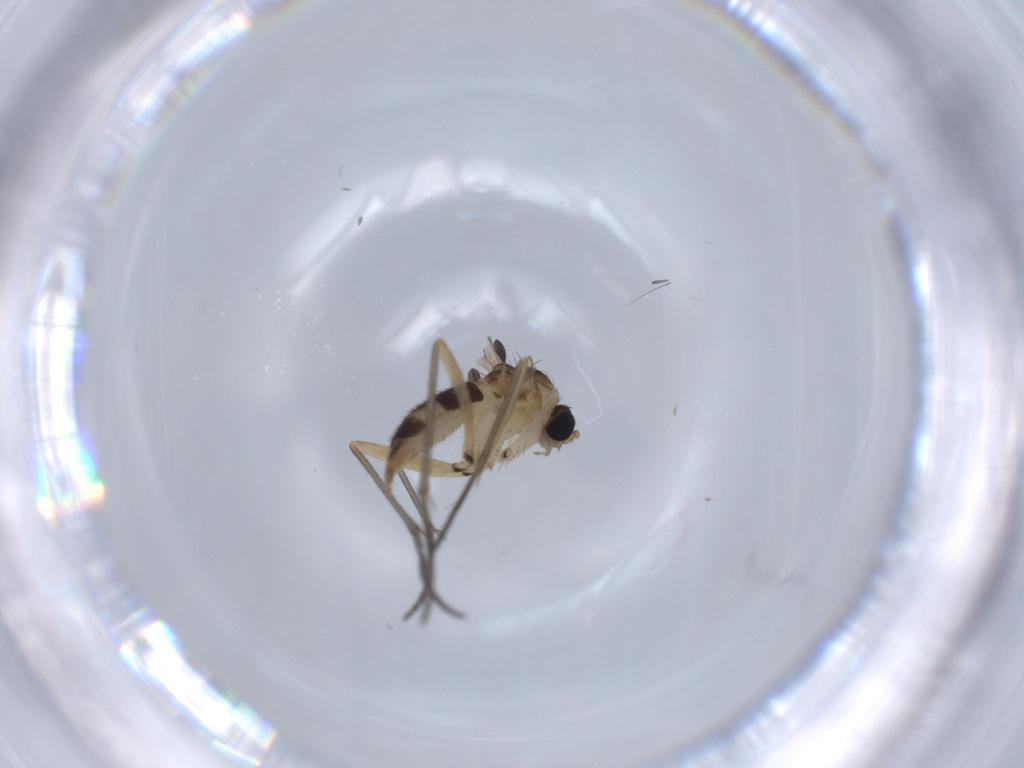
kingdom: Animalia
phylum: Arthropoda
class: Insecta
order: Diptera
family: Sciaridae
